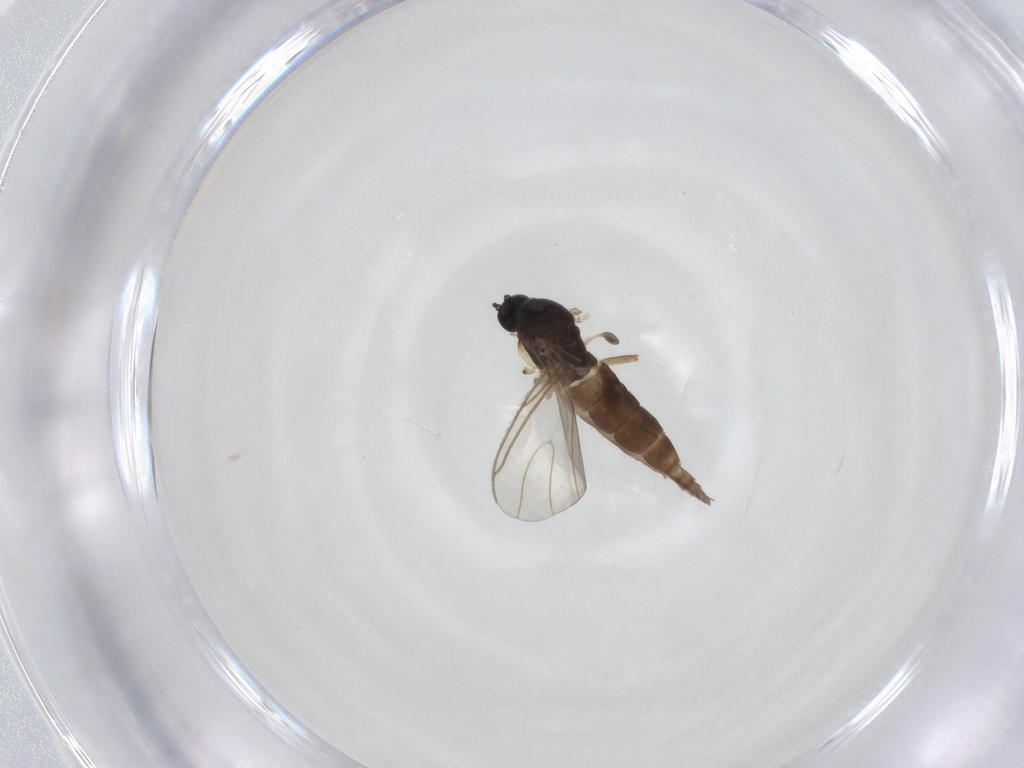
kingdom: Animalia
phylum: Arthropoda
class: Insecta
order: Diptera
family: Sciaridae
